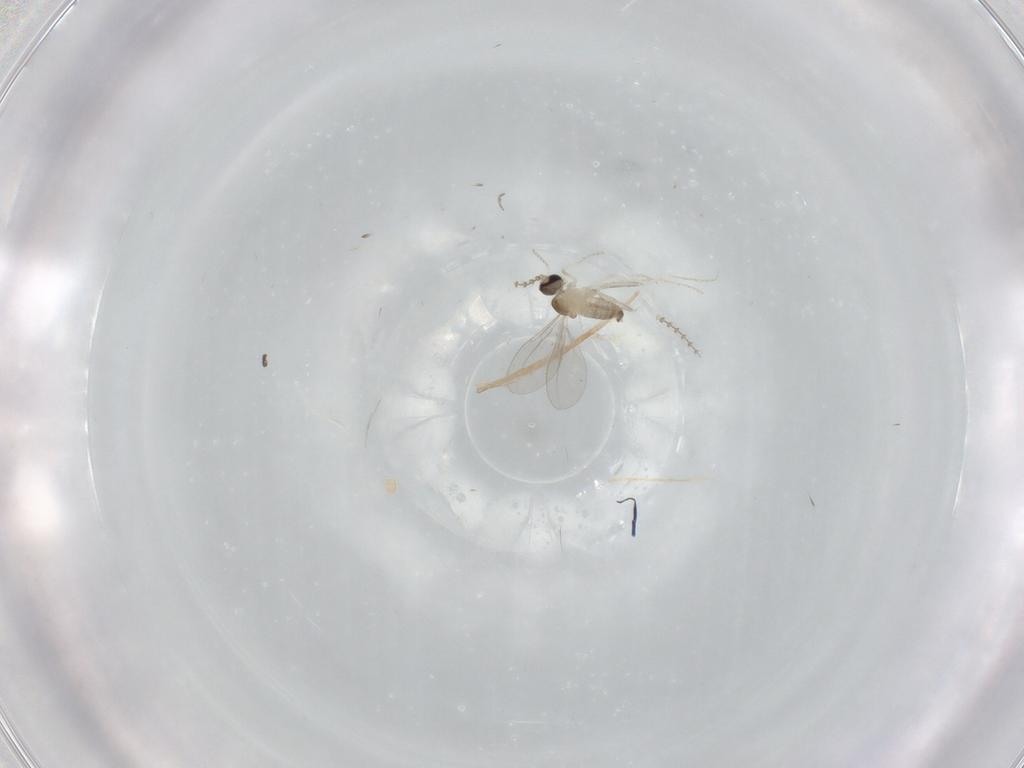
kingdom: Animalia
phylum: Arthropoda
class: Insecta
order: Diptera
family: Cecidomyiidae
